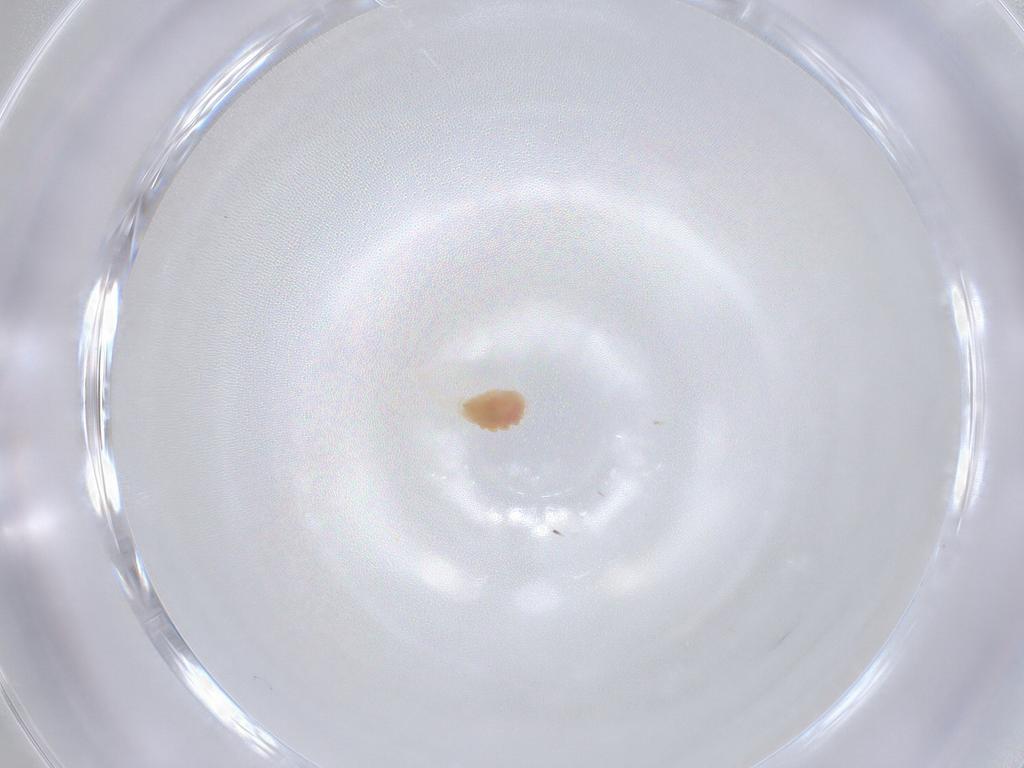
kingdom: Animalia
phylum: Arthropoda
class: Arachnida
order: Trombidiformes
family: Tetranychidae
